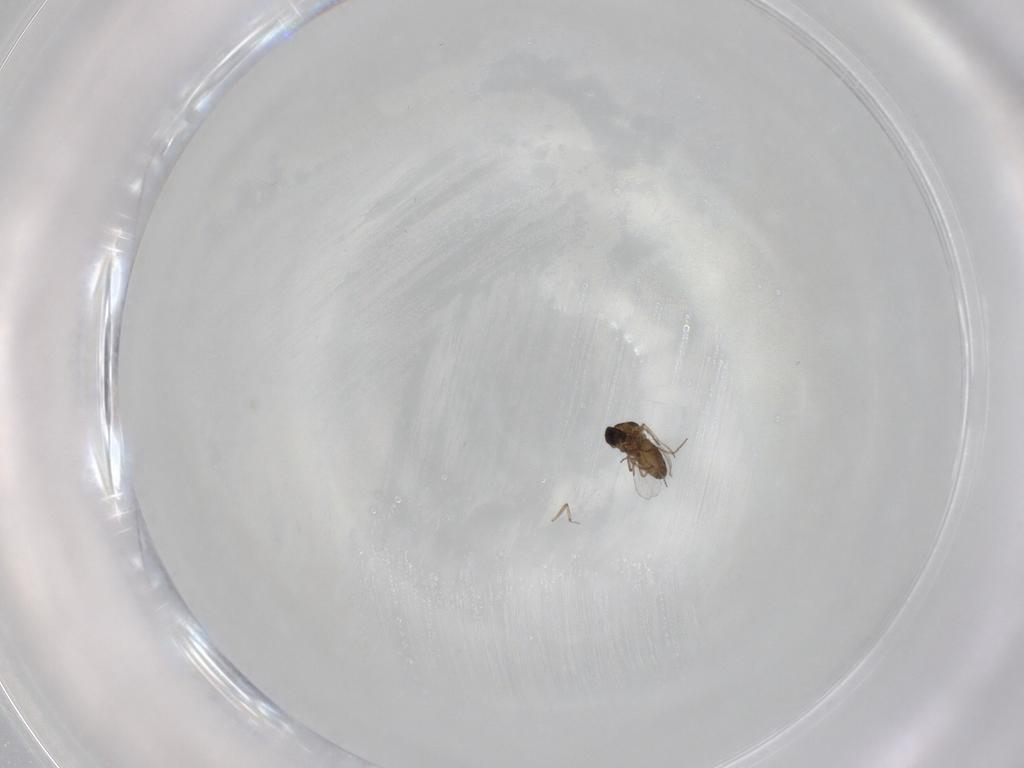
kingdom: Animalia
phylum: Arthropoda
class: Insecta
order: Diptera
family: Ceratopogonidae
